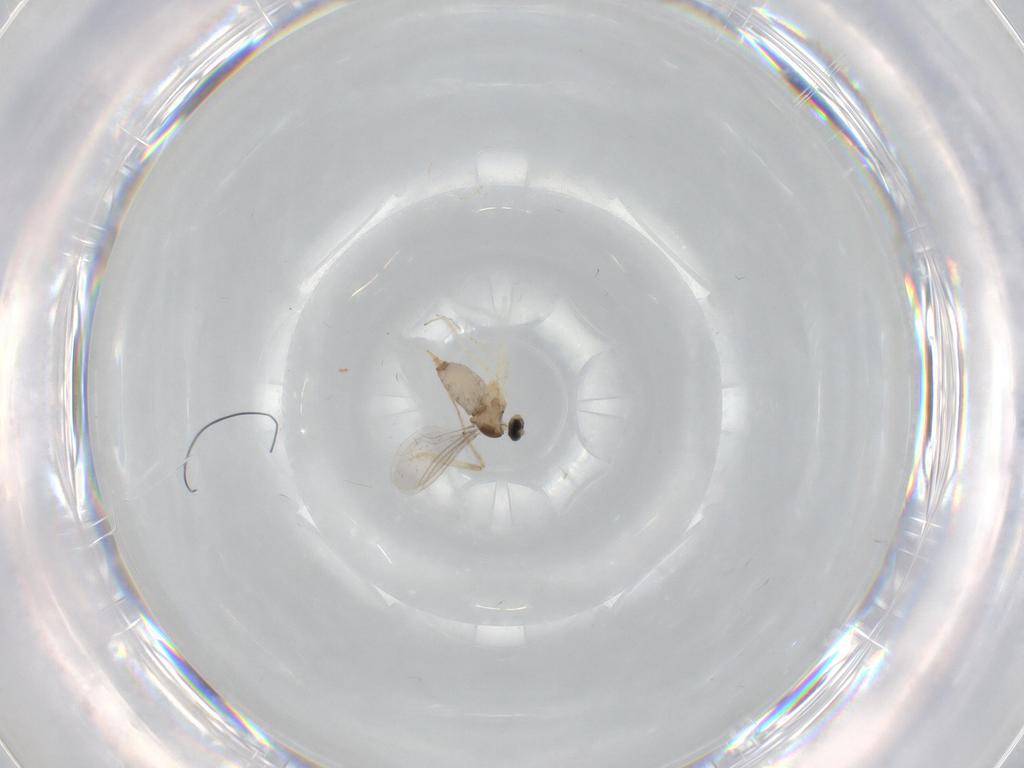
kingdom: Animalia
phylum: Arthropoda
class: Insecta
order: Diptera
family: Cecidomyiidae
